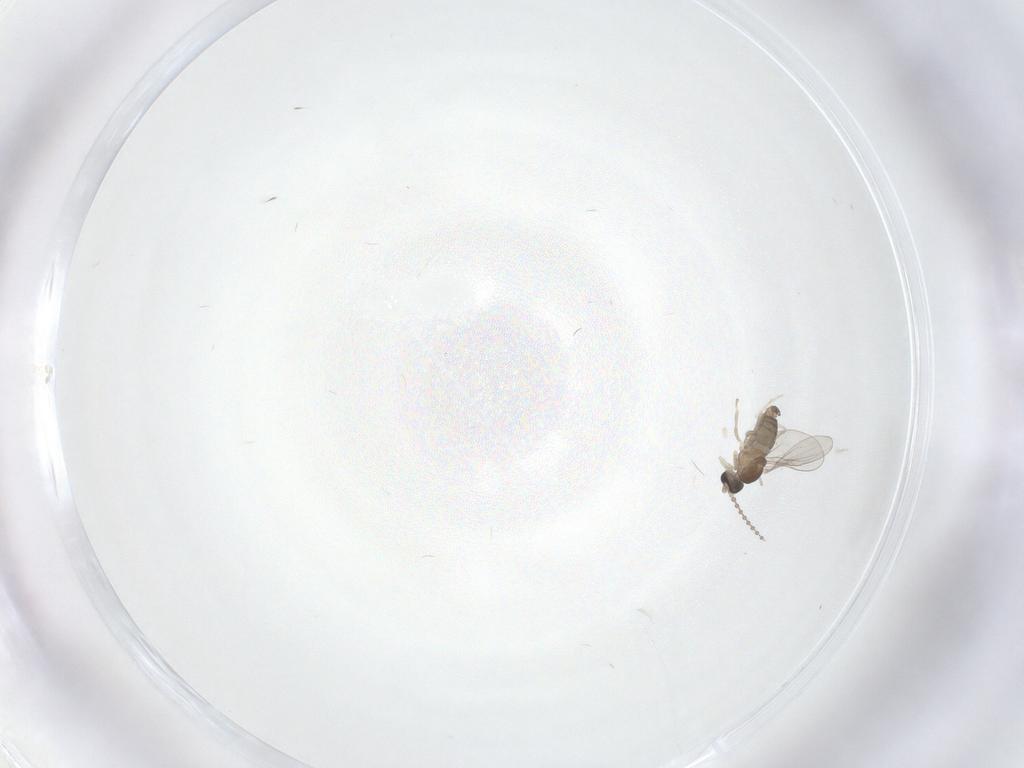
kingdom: Animalia
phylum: Arthropoda
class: Insecta
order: Diptera
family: Cecidomyiidae
